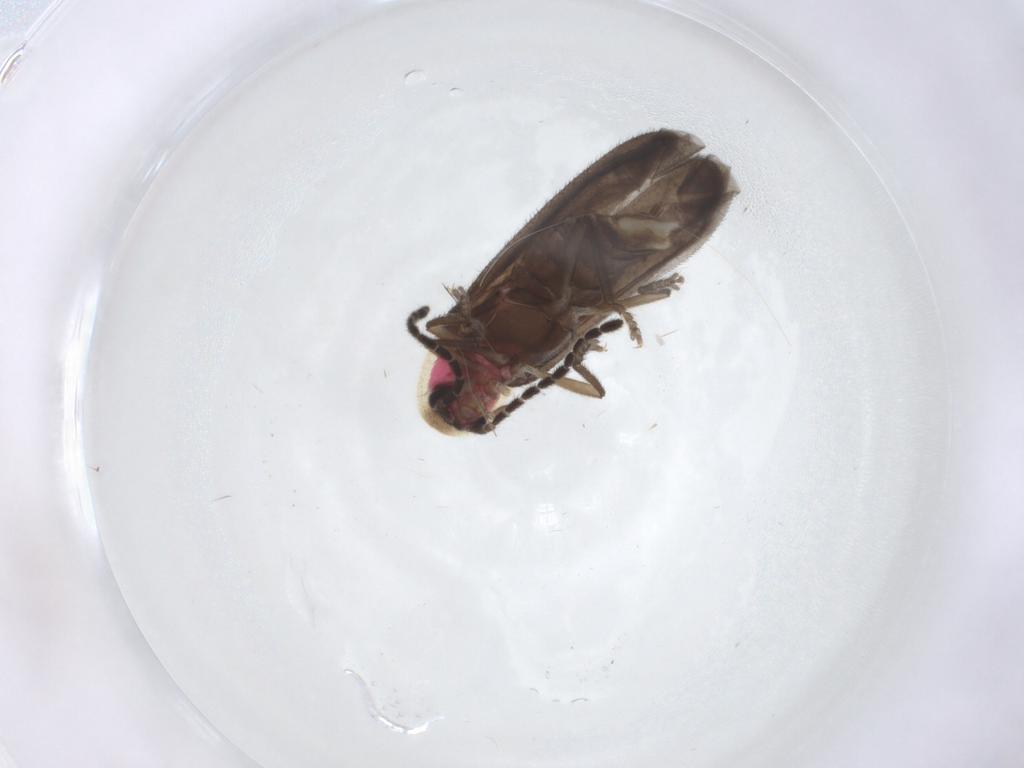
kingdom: Animalia
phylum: Arthropoda
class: Insecta
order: Coleoptera
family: Lampyridae
